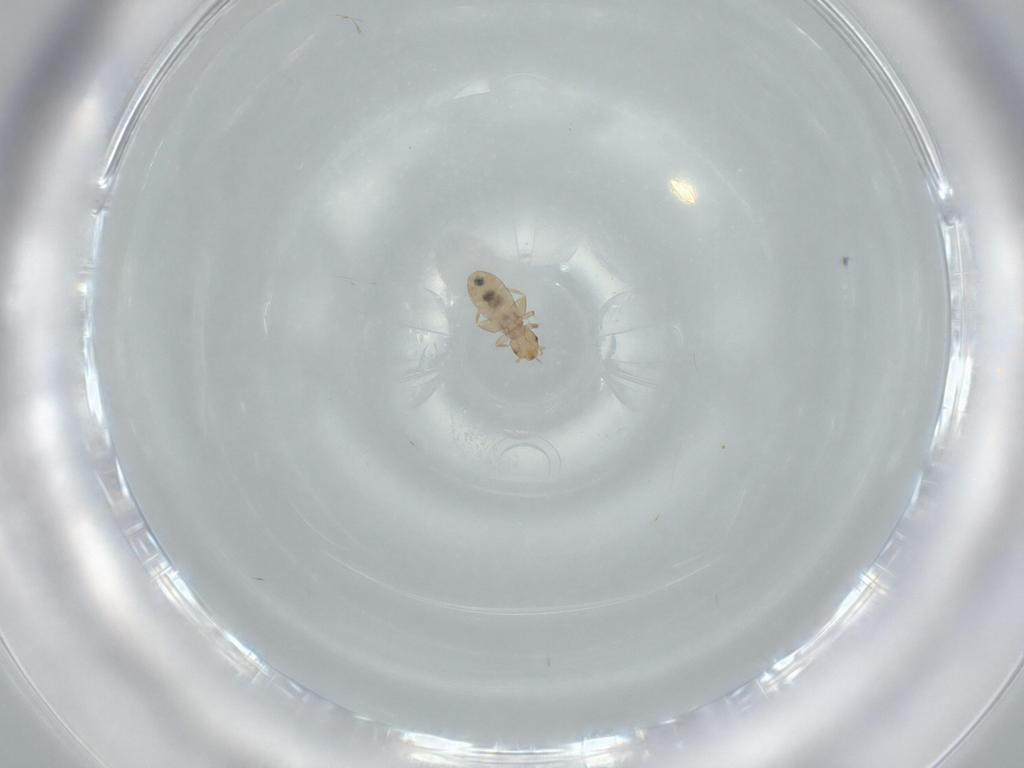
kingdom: Animalia
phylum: Arthropoda
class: Insecta
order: Psocodea
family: Liposcelididae
